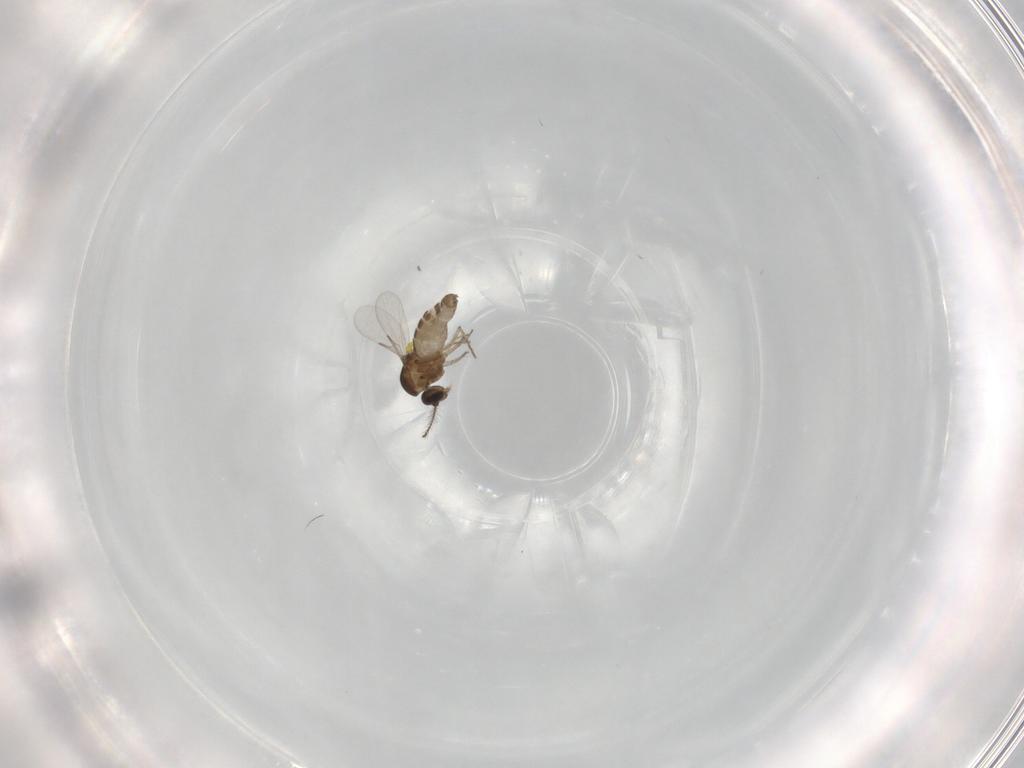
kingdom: Animalia
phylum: Arthropoda
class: Insecta
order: Diptera
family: Ceratopogonidae
